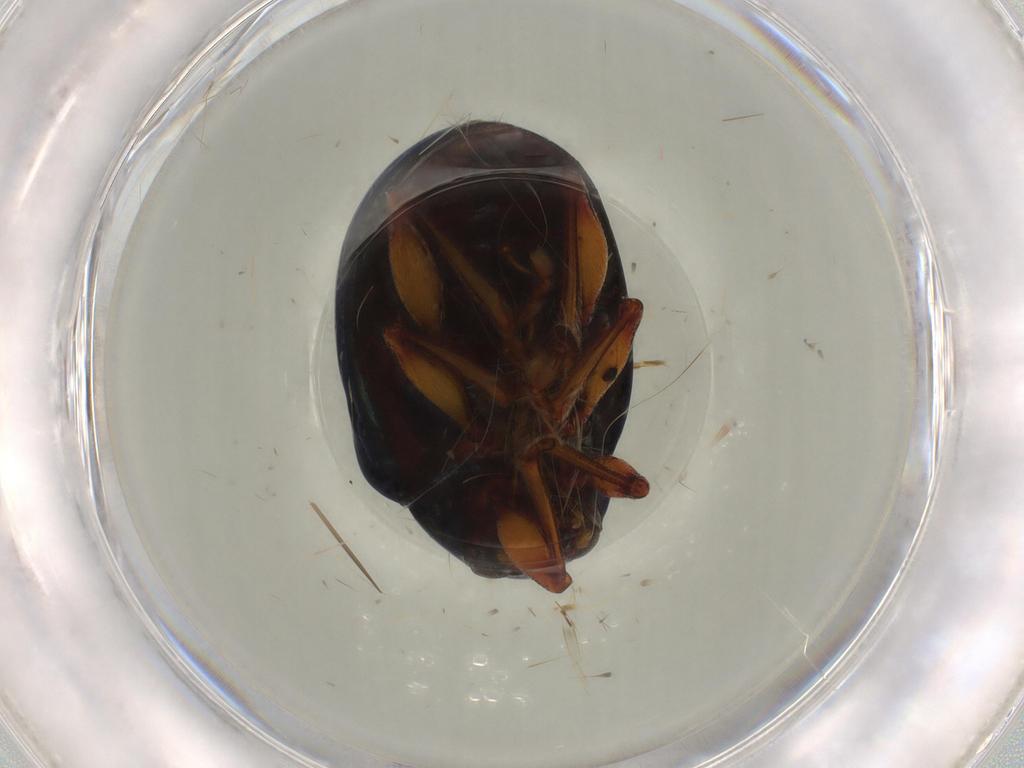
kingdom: Animalia
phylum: Arthropoda
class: Insecta
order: Coleoptera
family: Chrysomelidae
